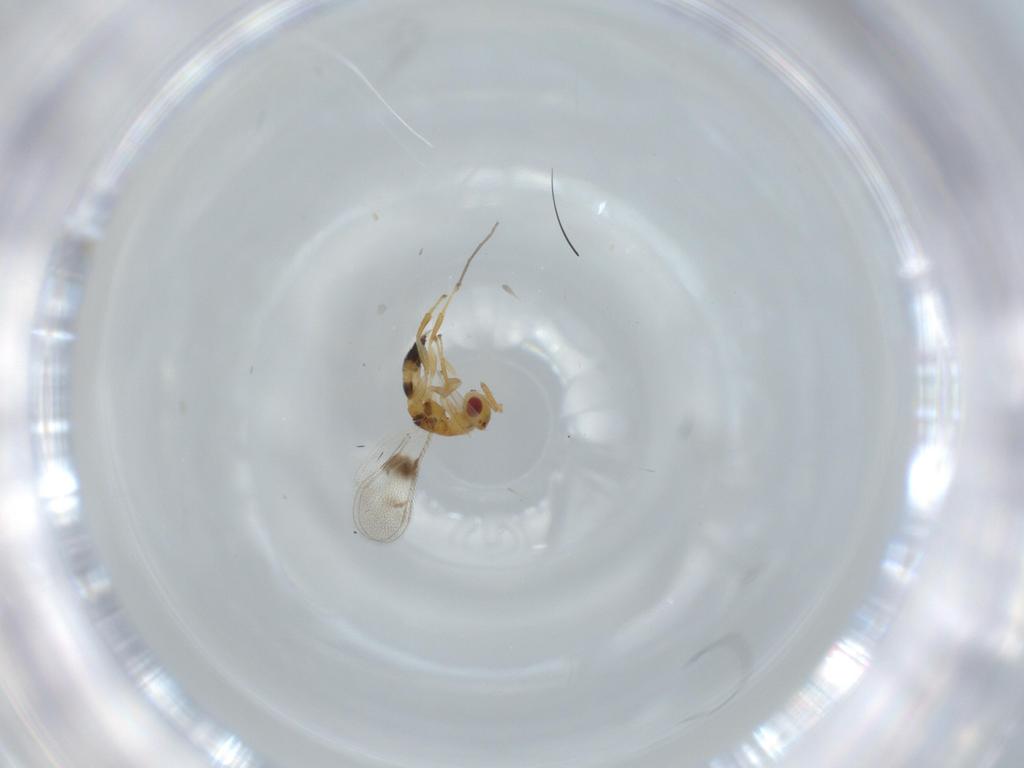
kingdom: Animalia
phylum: Arthropoda
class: Insecta
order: Hymenoptera
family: Torymidae
